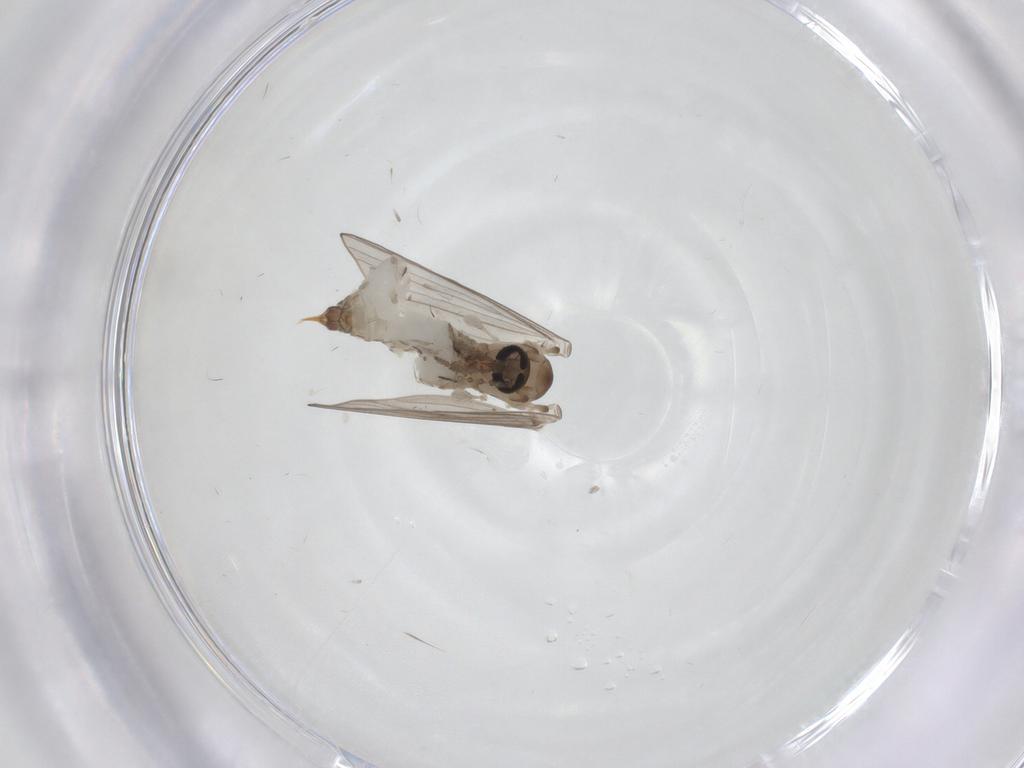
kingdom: Animalia
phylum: Arthropoda
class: Insecta
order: Diptera
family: Psychodidae
